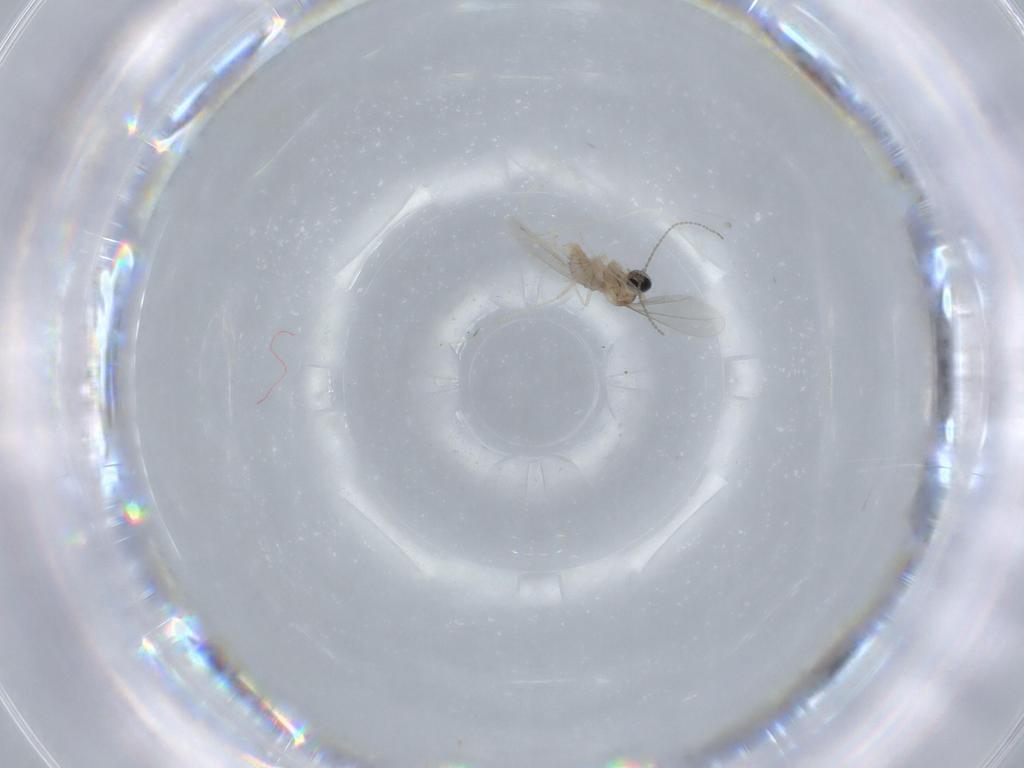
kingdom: Animalia
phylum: Arthropoda
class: Insecta
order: Diptera
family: Cecidomyiidae
